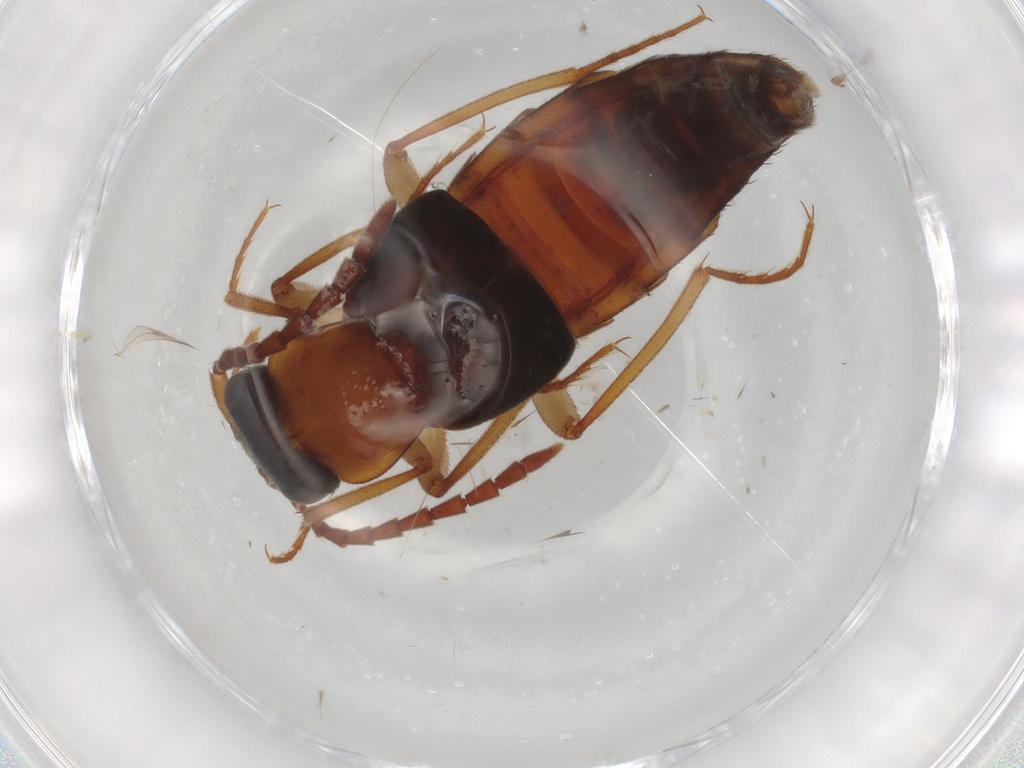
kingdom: Animalia
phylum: Arthropoda
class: Insecta
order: Coleoptera
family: Staphylinidae
